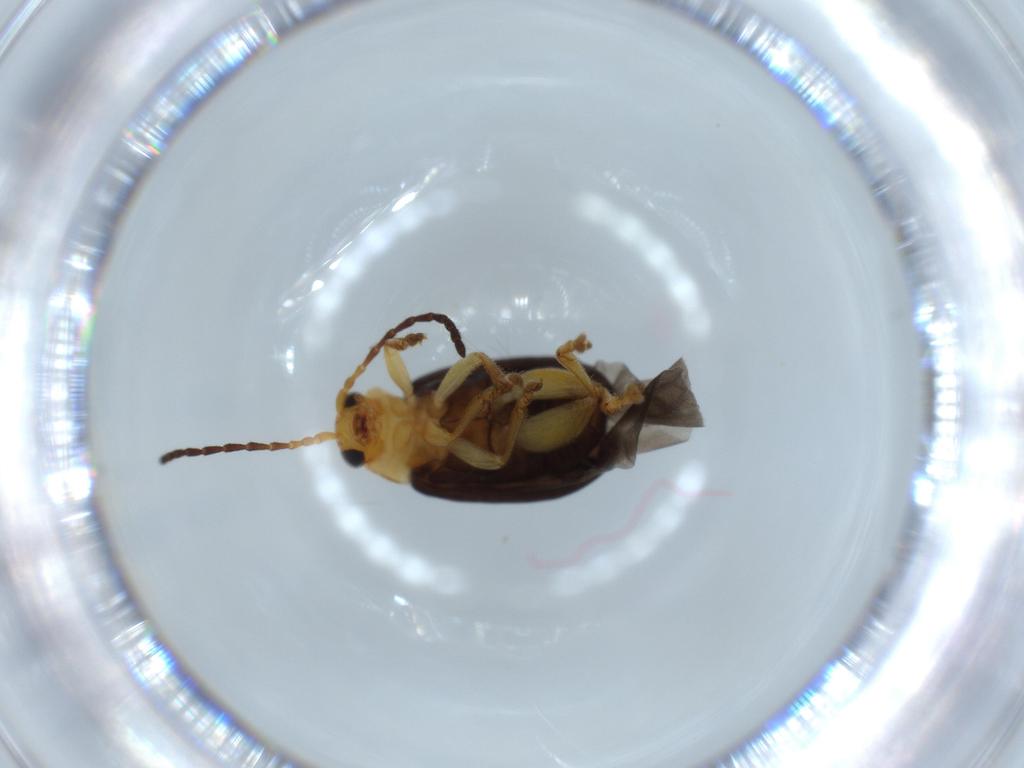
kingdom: Animalia
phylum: Arthropoda
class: Insecta
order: Coleoptera
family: Chrysomelidae
